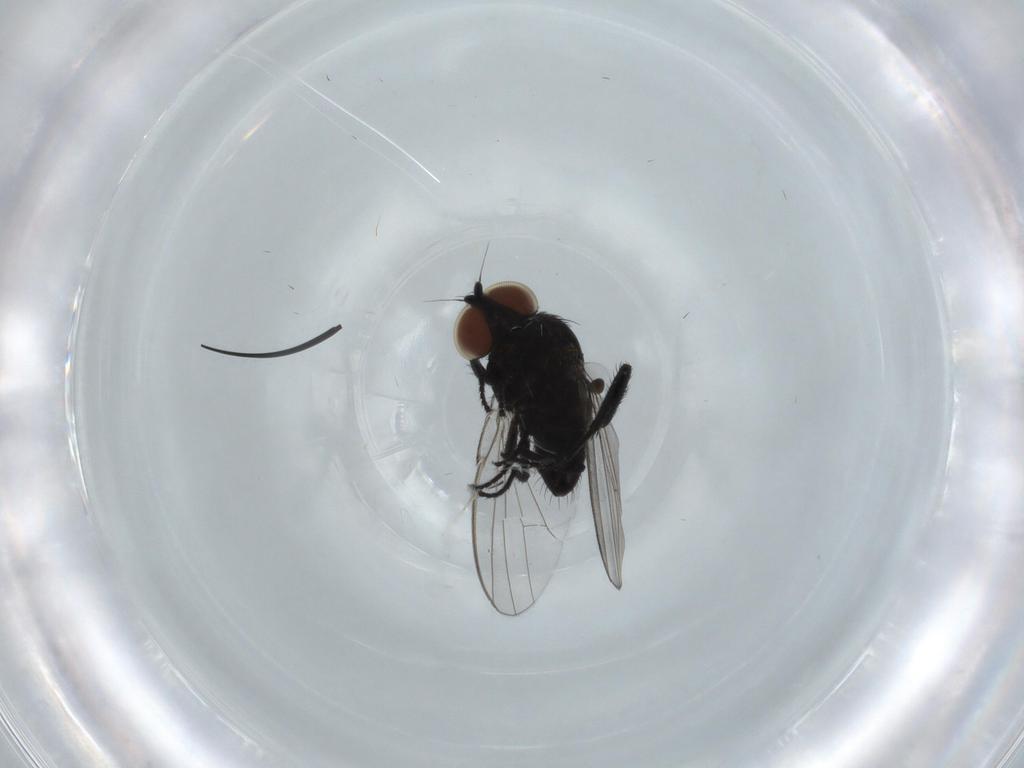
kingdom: Animalia
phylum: Arthropoda
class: Insecta
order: Diptera
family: Milichiidae
